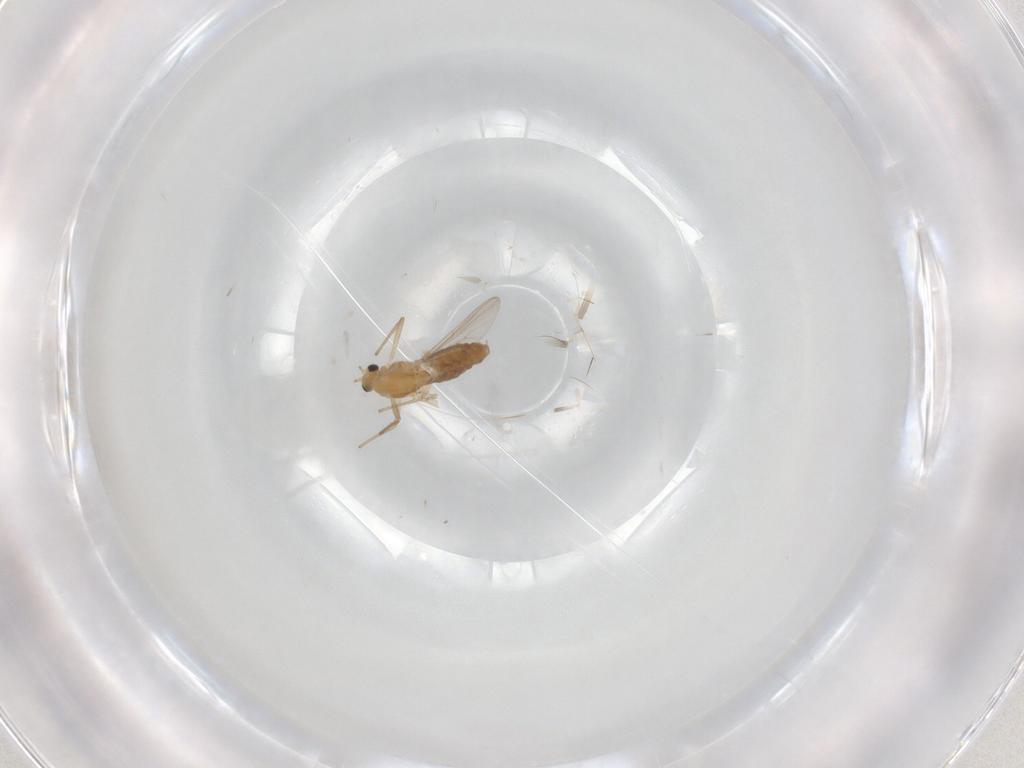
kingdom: Animalia
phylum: Arthropoda
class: Insecta
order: Diptera
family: Chironomidae
